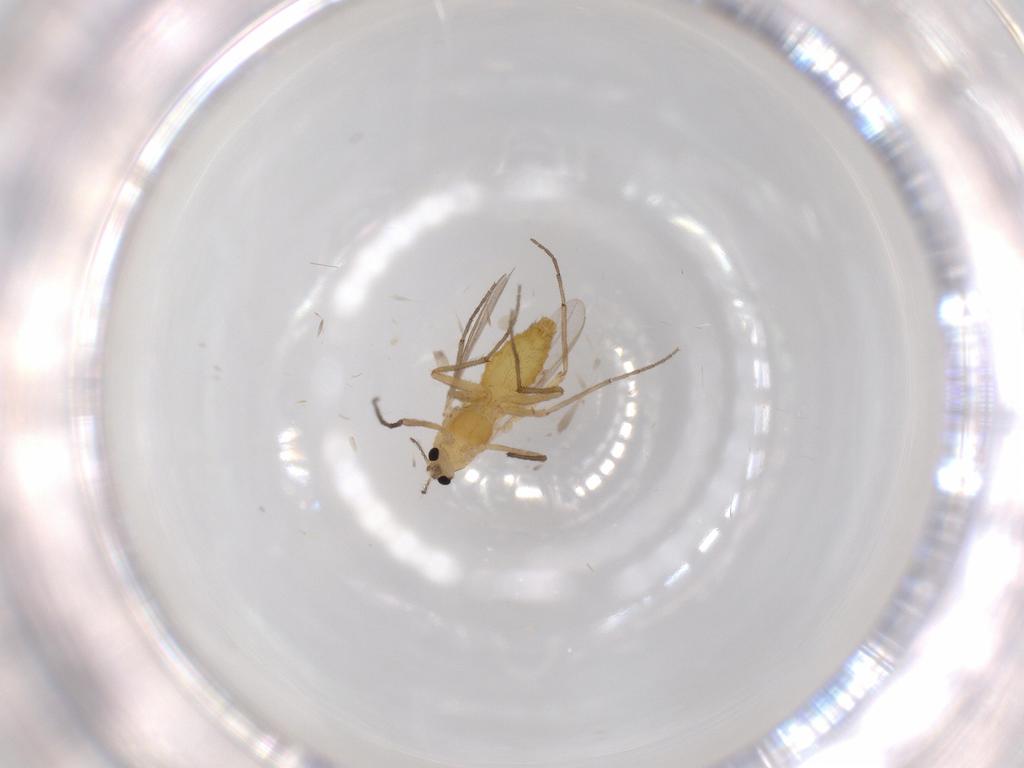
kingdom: Animalia
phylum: Arthropoda
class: Insecta
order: Diptera
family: Chironomidae
